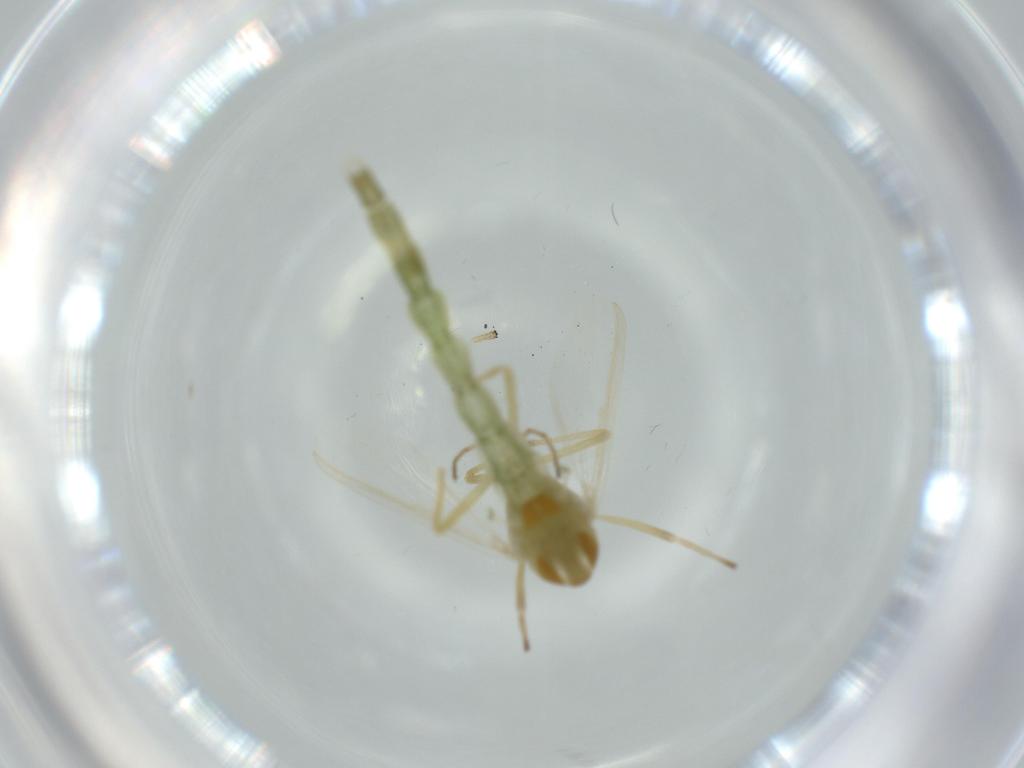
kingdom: Animalia
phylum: Arthropoda
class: Insecta
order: Diptera
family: Chironomidae
